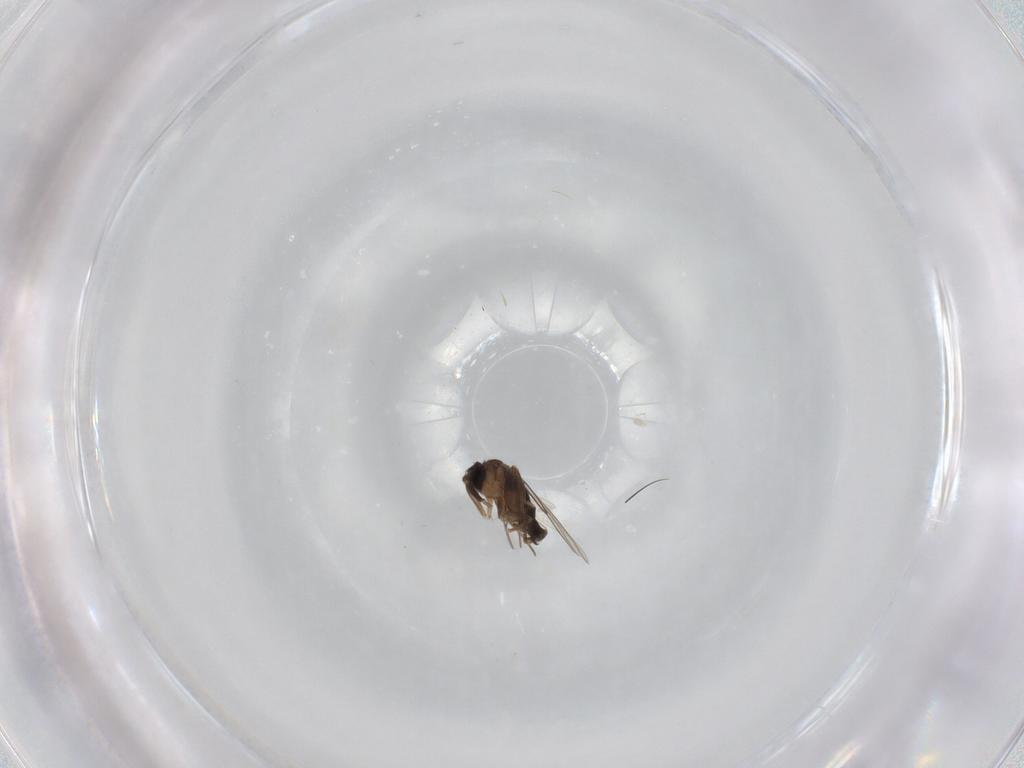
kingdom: Animalia
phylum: Arthropoda
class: Insecta
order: Diptera
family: Phoridae
